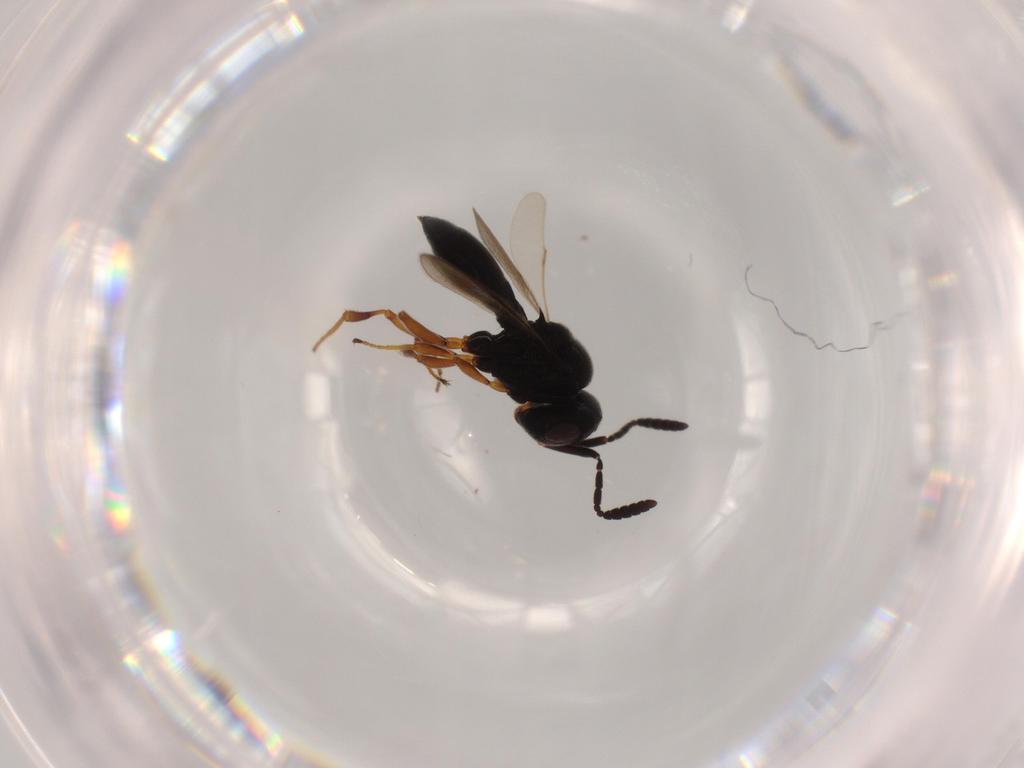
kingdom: Animalia
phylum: Arthropoda
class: Insecta
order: Hymenoptera
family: Scelionidae
